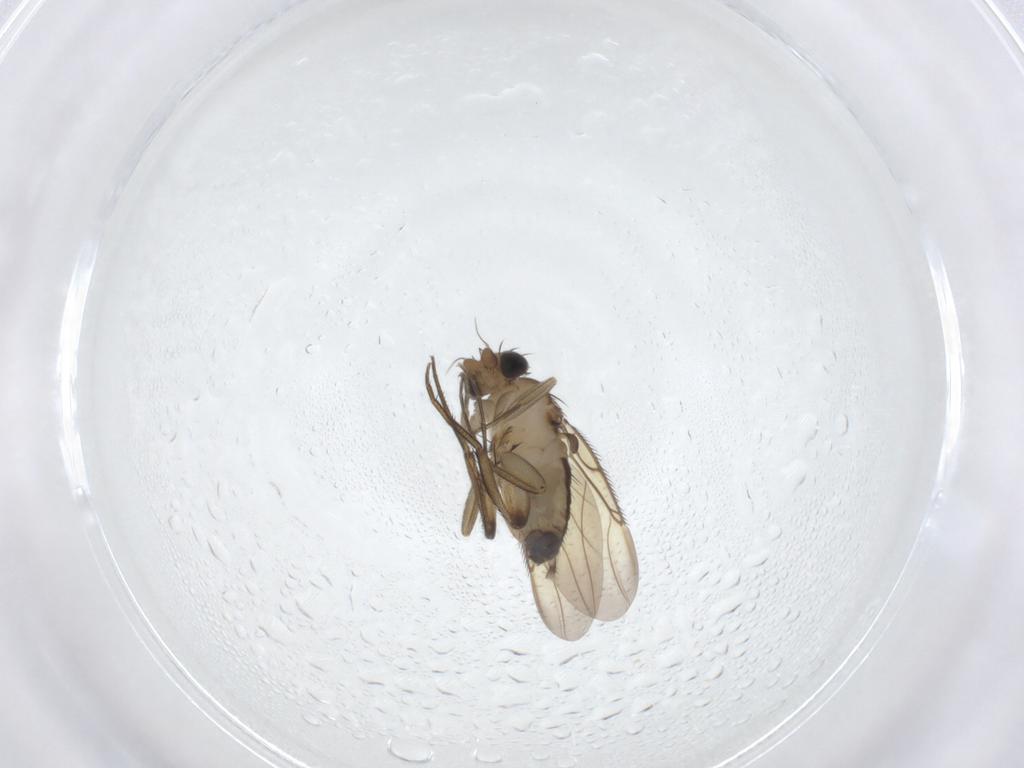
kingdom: Animalia
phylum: Arthropoda
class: Insecta
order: Diptera
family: Phoridae
